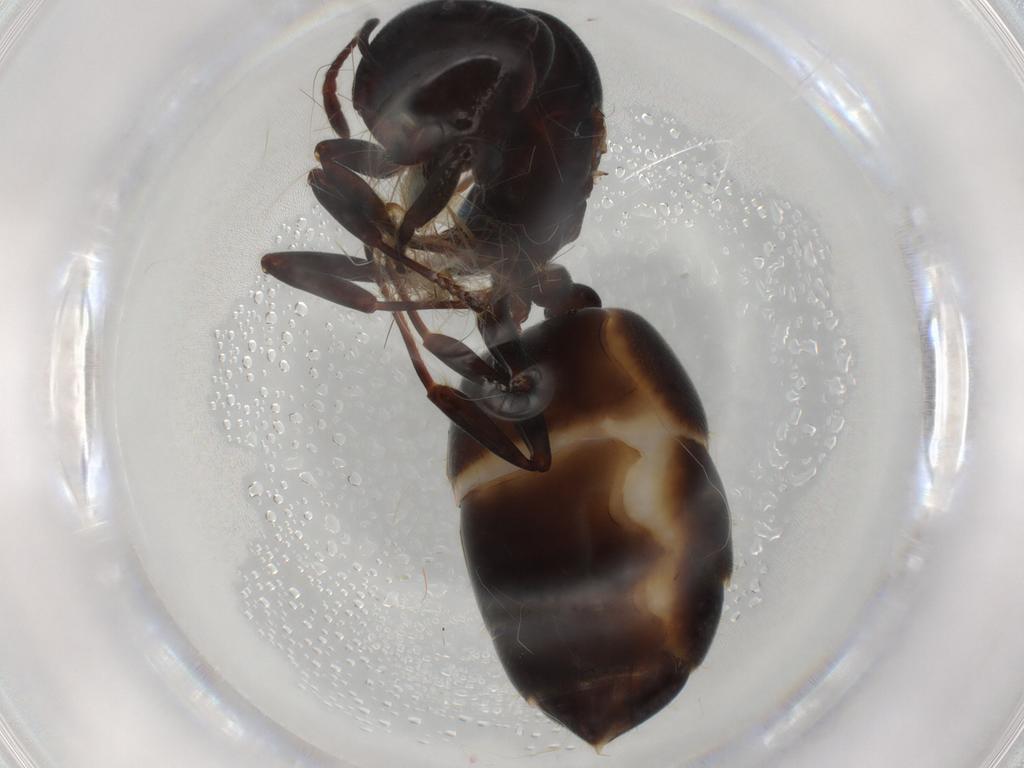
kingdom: Animalia
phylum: Arthropoda
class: Insecta
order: Hymenoptera
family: Formicidae
